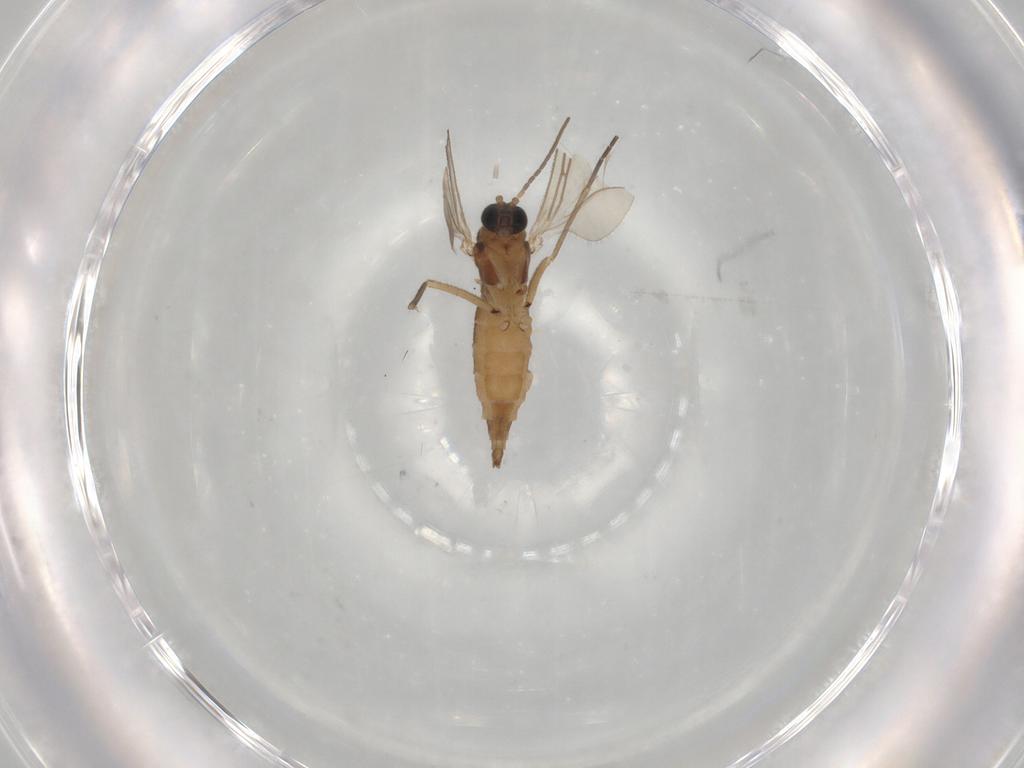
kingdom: Animalia
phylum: Arthropoda
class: Insecta
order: Diptera
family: Sciaridae
